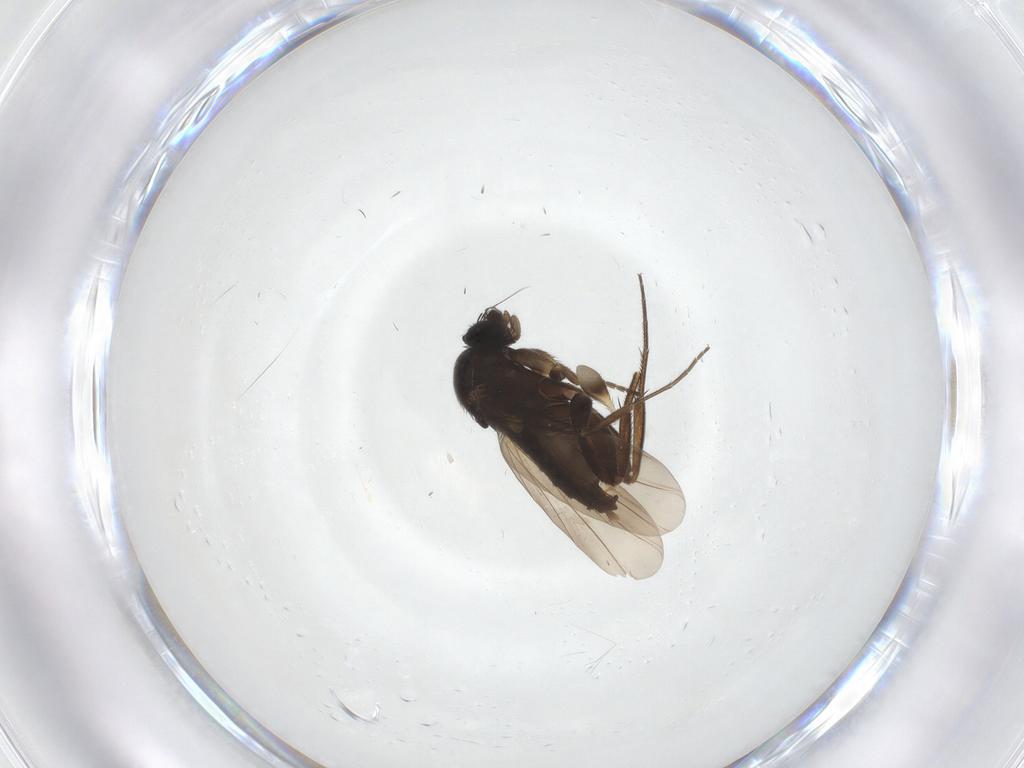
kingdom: Animalia
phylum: Arthropoda
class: Insecta
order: Diptera
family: Phoridae
